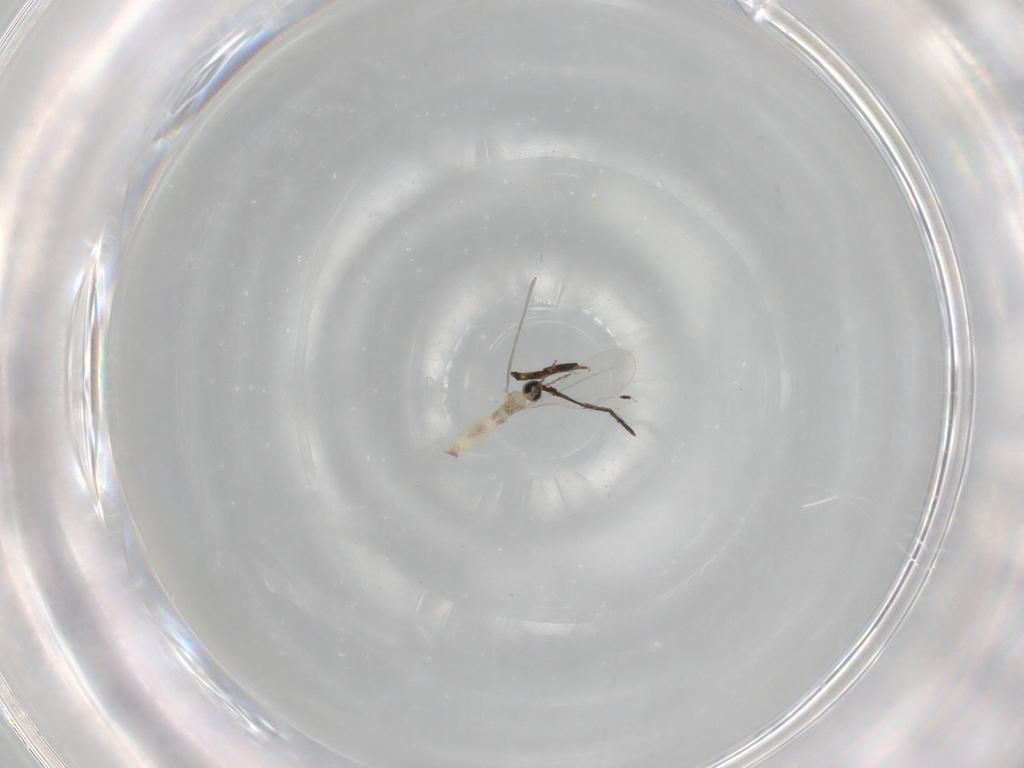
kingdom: Animalia
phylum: Arthropoda
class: Insecta
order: Diptera
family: Cecidomyiidae
